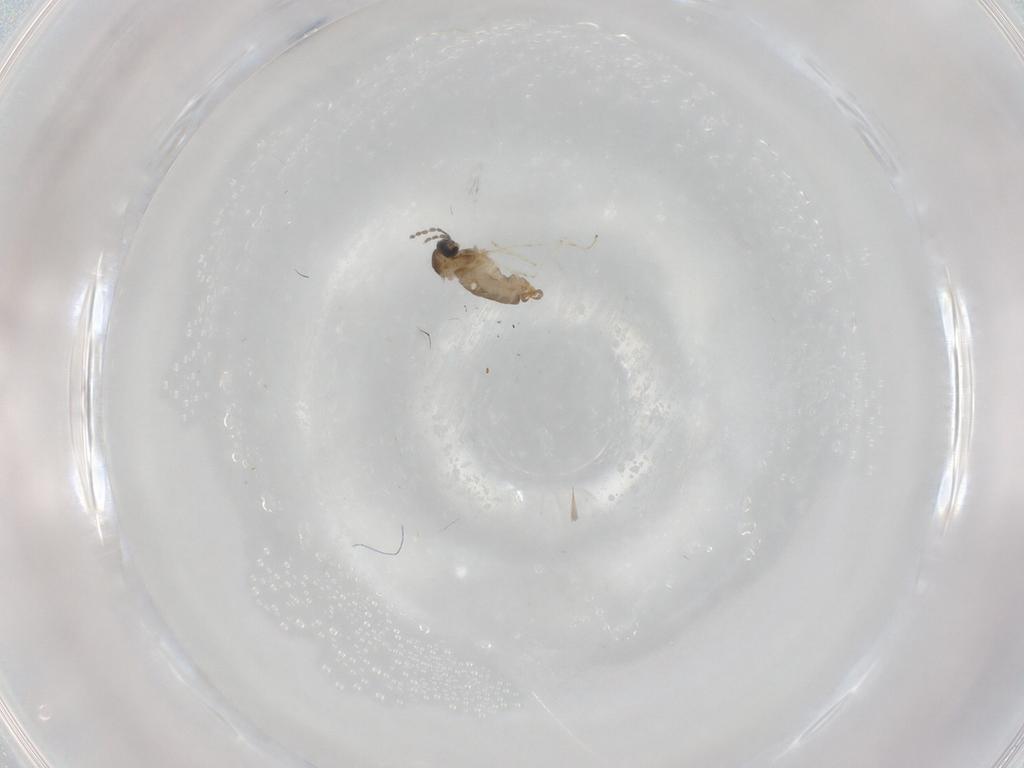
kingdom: Animalia
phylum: Arthropoda
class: Insecta
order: Diptera
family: Cecidomyiidae
